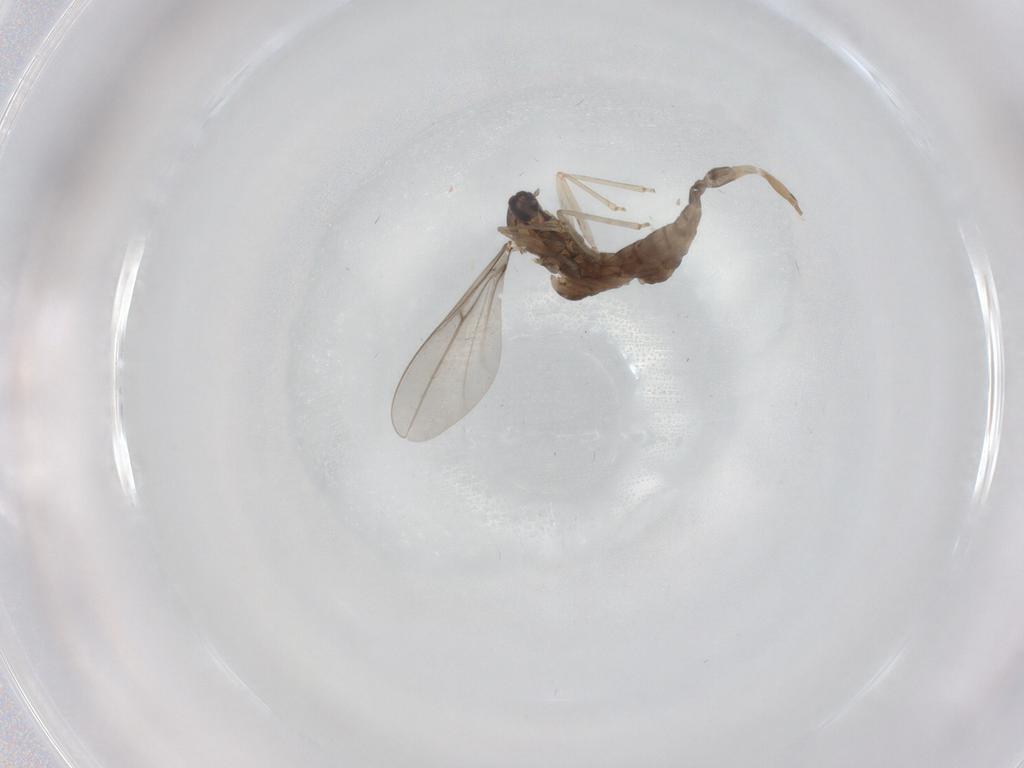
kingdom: Animalia
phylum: Arthropoda
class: Insecta
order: Diptera
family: Cecidomyiidae
